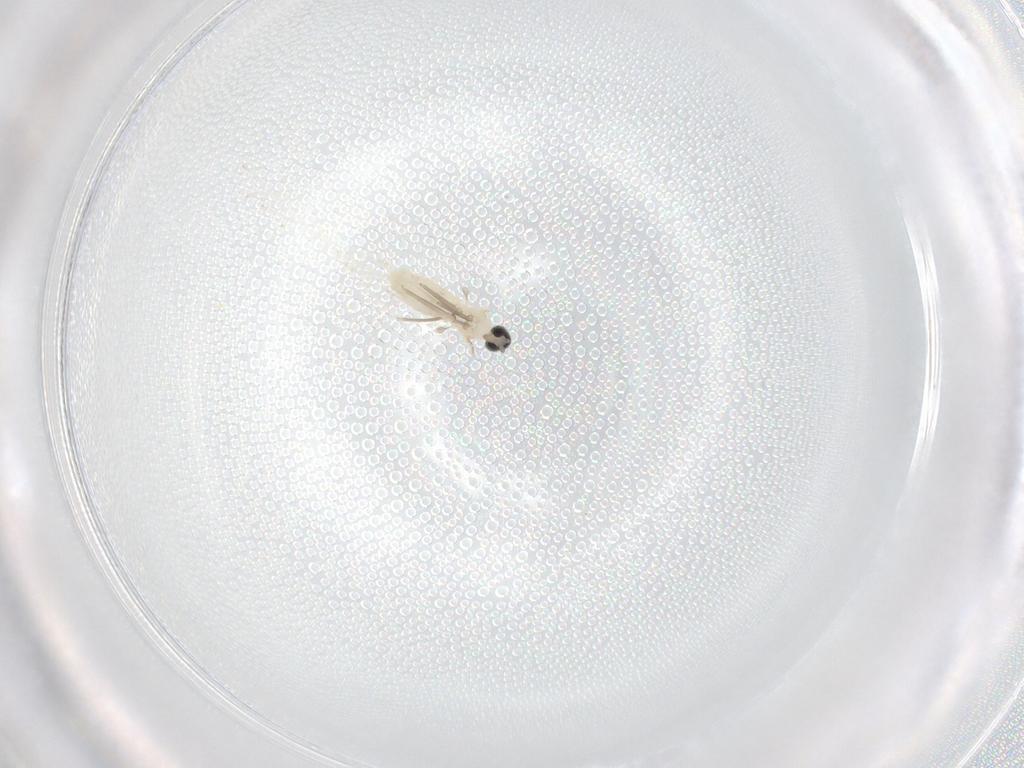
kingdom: Animalia
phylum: Arthropoda
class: Insecta
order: Diptera
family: Cecidomyiidae
